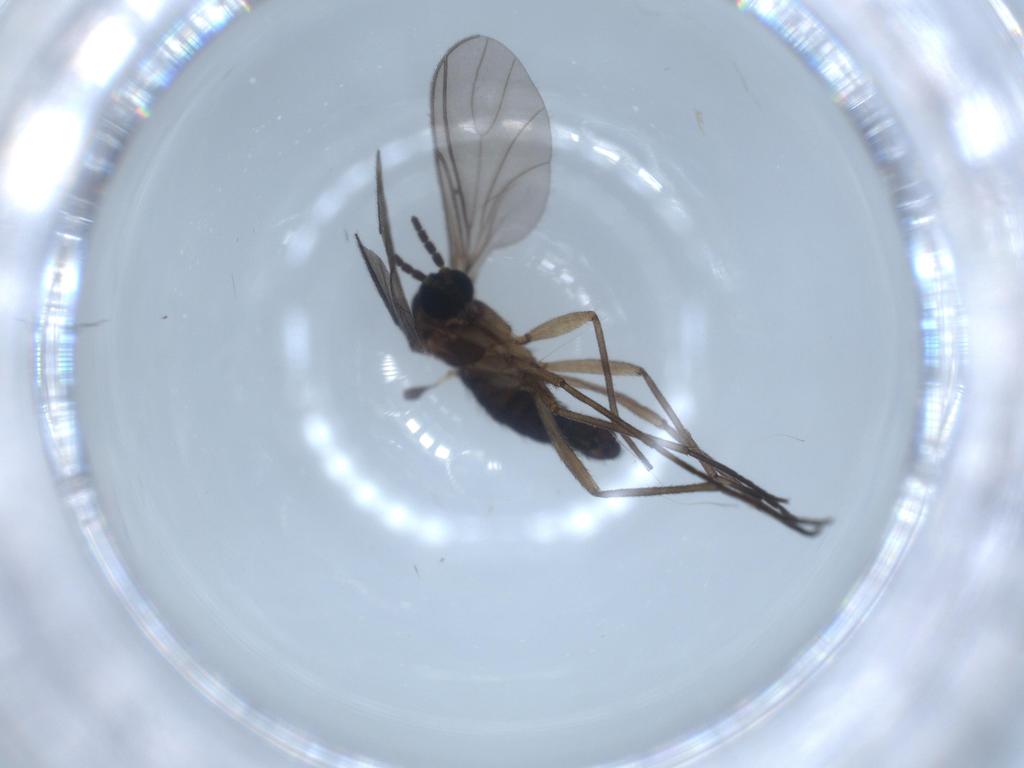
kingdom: Animalia
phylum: Arthropoda
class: Insecta
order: Diptera
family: Sciaridae
